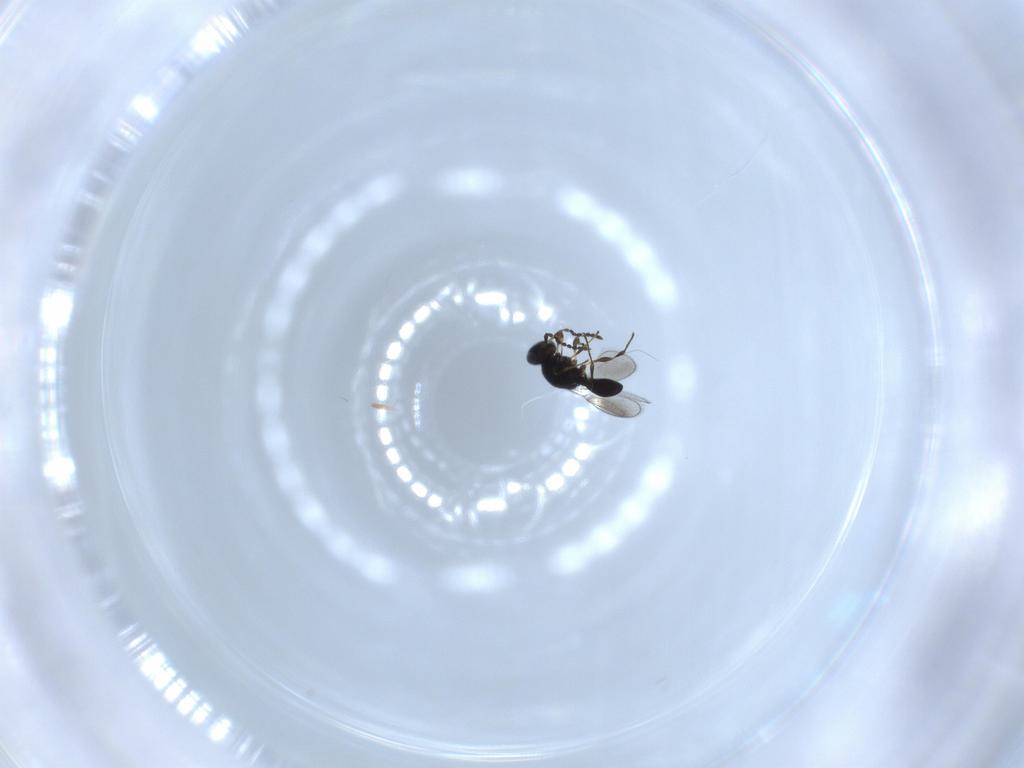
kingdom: Animalia
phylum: Arthropoda
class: Insecta
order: Hymenoptera
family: Platygastridae
